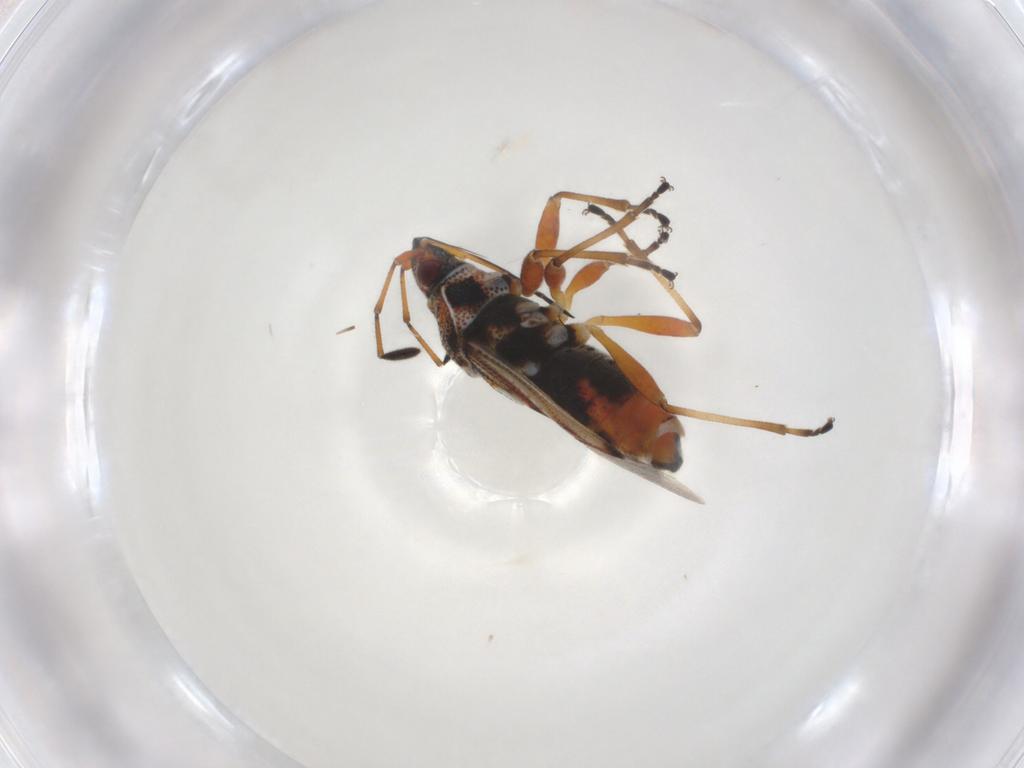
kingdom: Animalia
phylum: Arthropoda
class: Insecta
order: Hemiptera
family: Lygaeidae
